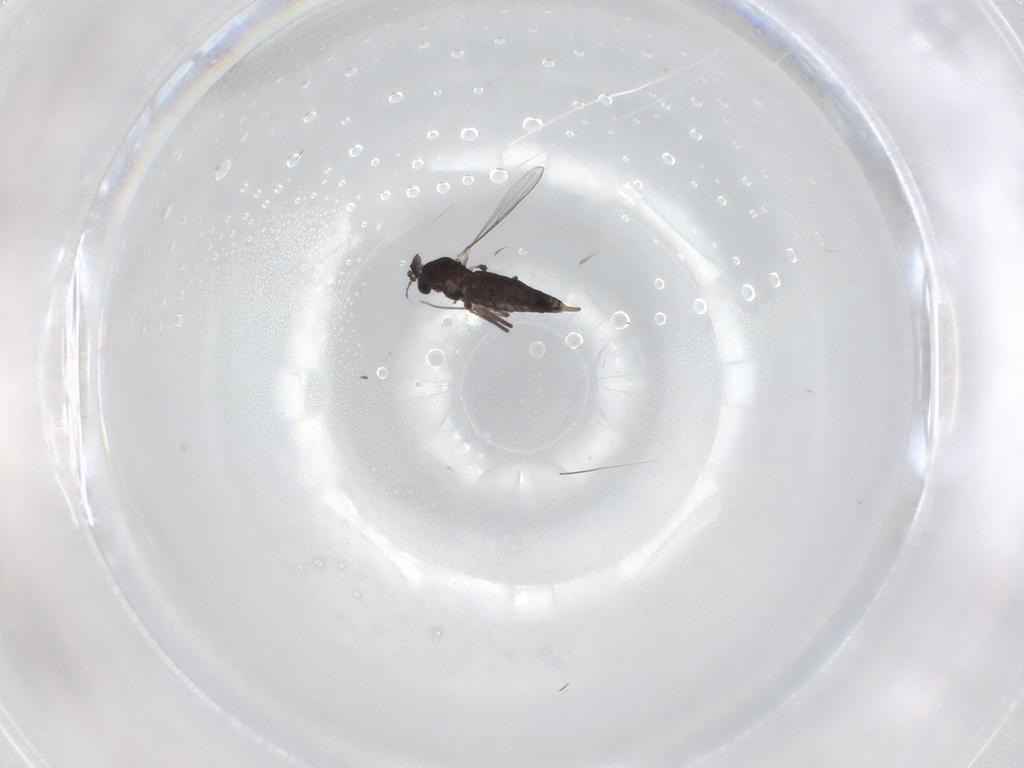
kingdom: Animalia
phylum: Arthropoda
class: Insecta
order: Diptera
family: Chironomidae
